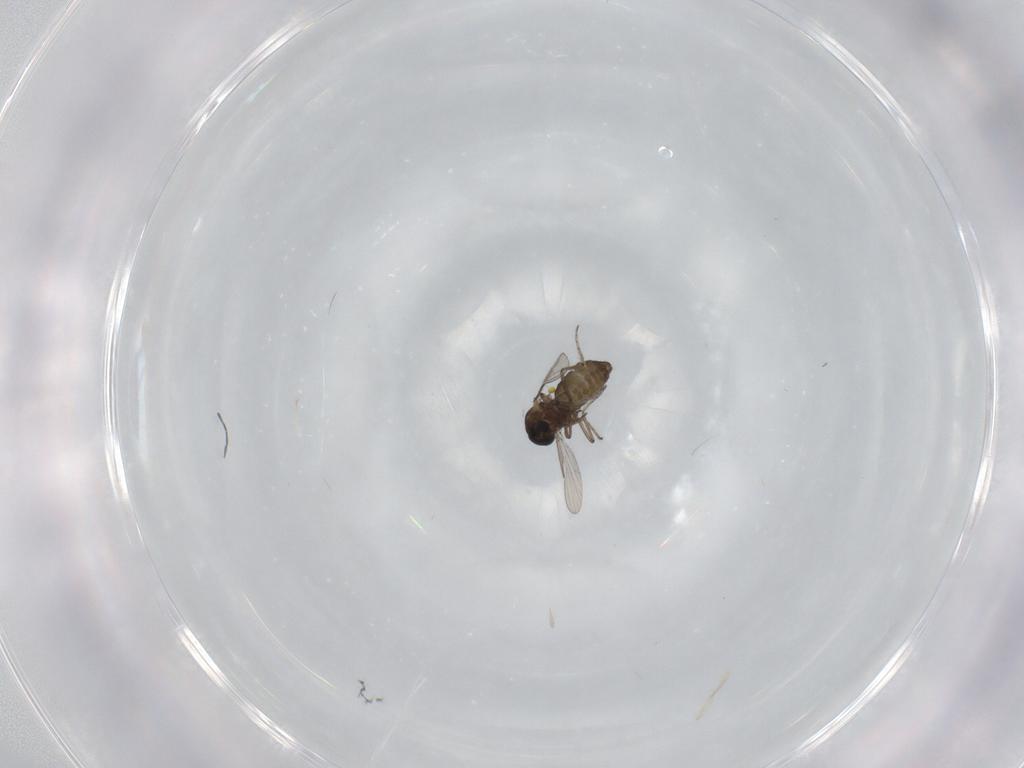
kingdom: Animalia
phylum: Arthropoda
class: Insecta
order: Diptera
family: Ceratopogonidae
